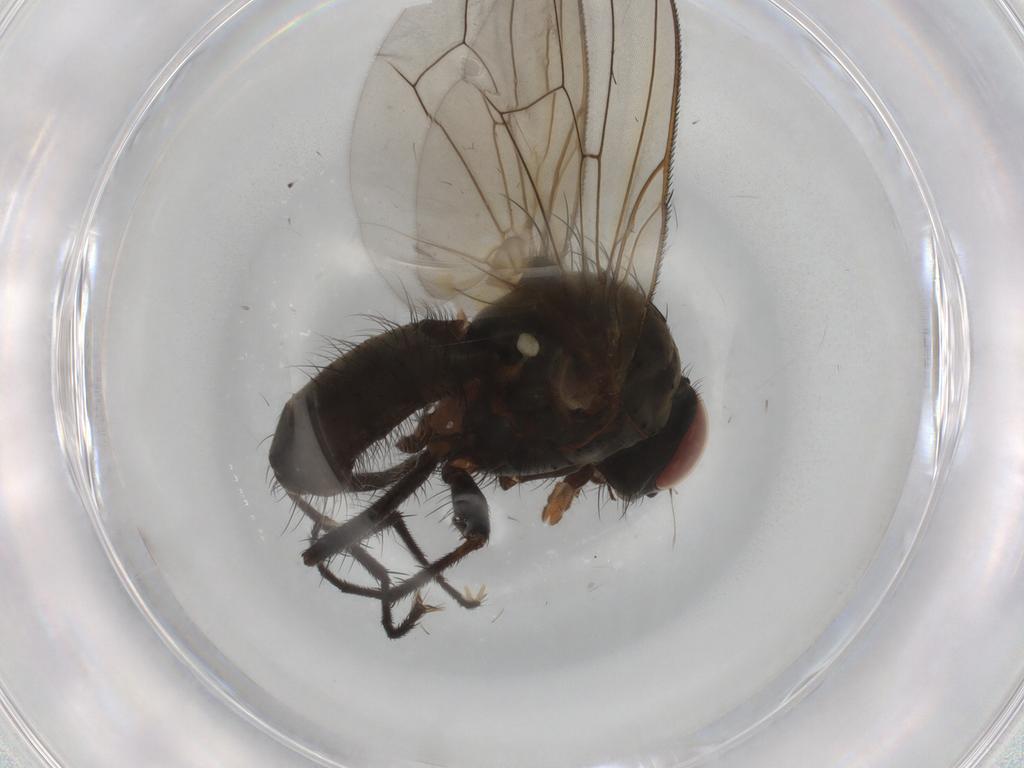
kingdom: Animalia
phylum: Arthropoda
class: Insecta
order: Diptera
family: Anthomyiidae
